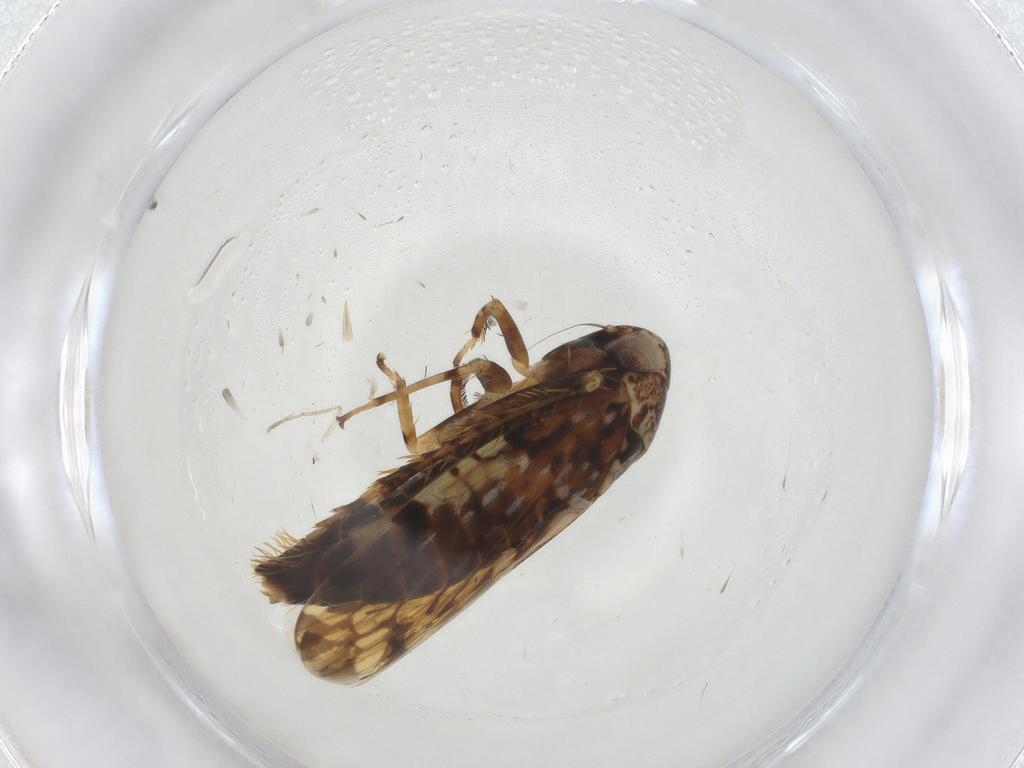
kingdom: Animalia
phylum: Arthropoda
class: Insecta
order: Hemiptera
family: Cicadellidae
